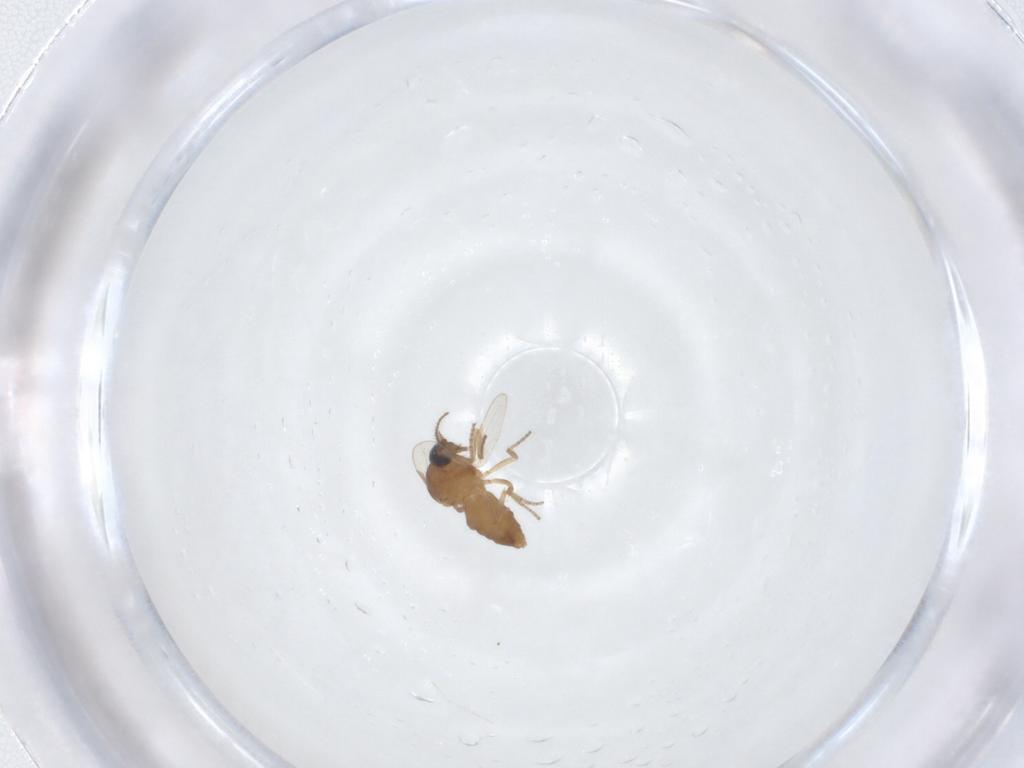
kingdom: Animalia
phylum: Arthropoda
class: Insecta
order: Diptera
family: Ceratopogonidae
